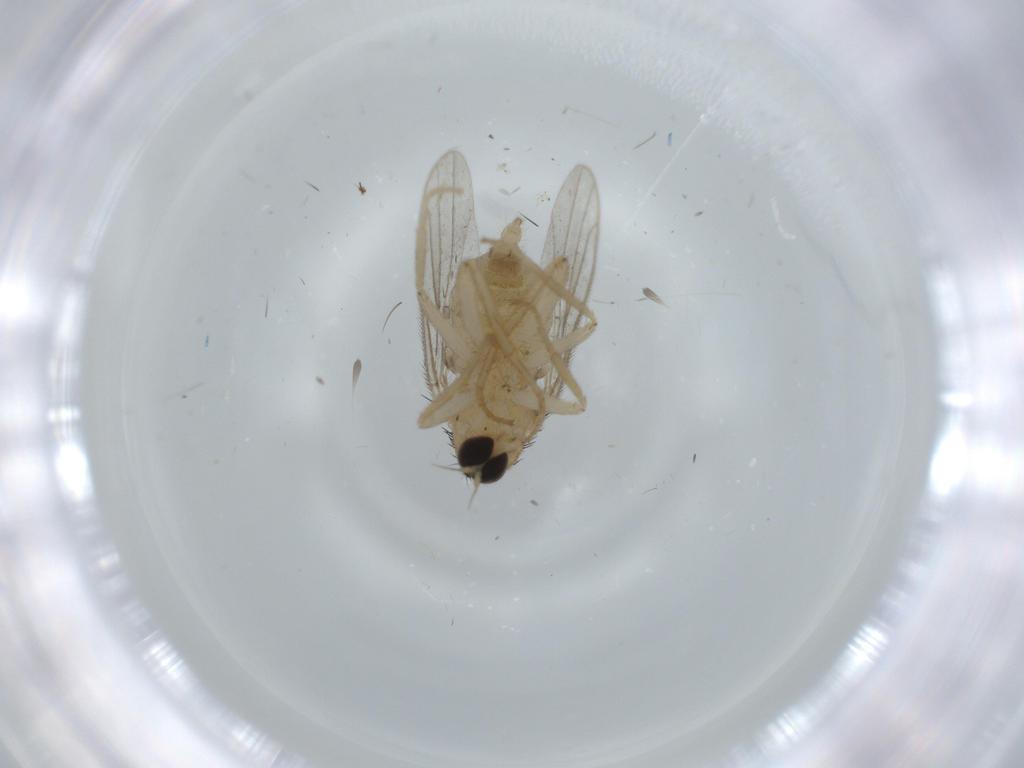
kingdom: Animalia
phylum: Arthropoda
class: Insecta
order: Diptera
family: Hybotidae
